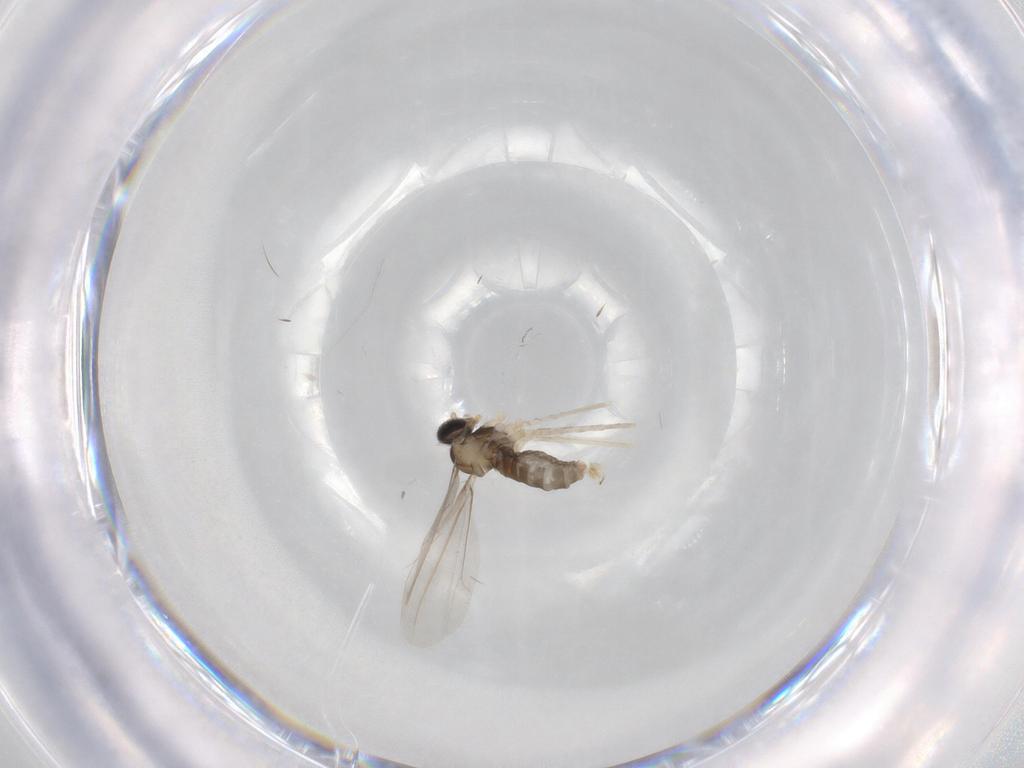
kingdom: Animalia
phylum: Arthropoda
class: Insecta
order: Diptera
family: Cecidomyiidae
